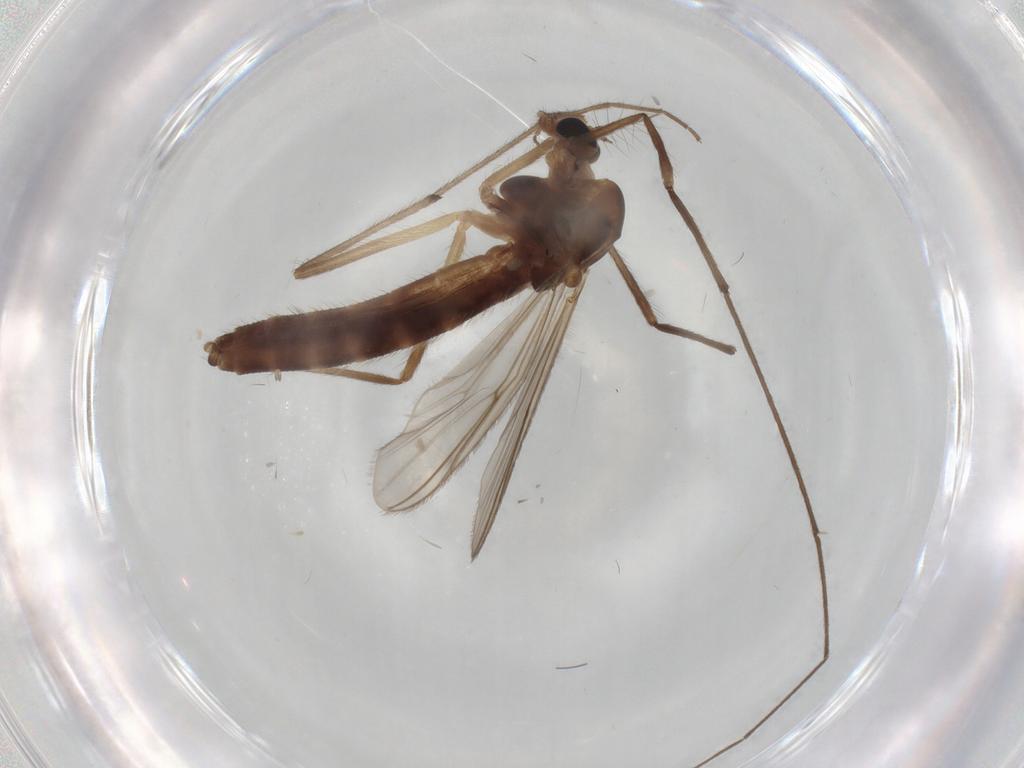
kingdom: Animalia
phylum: Arthropoda
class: Insecta
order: Diptera
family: Chironomidae
